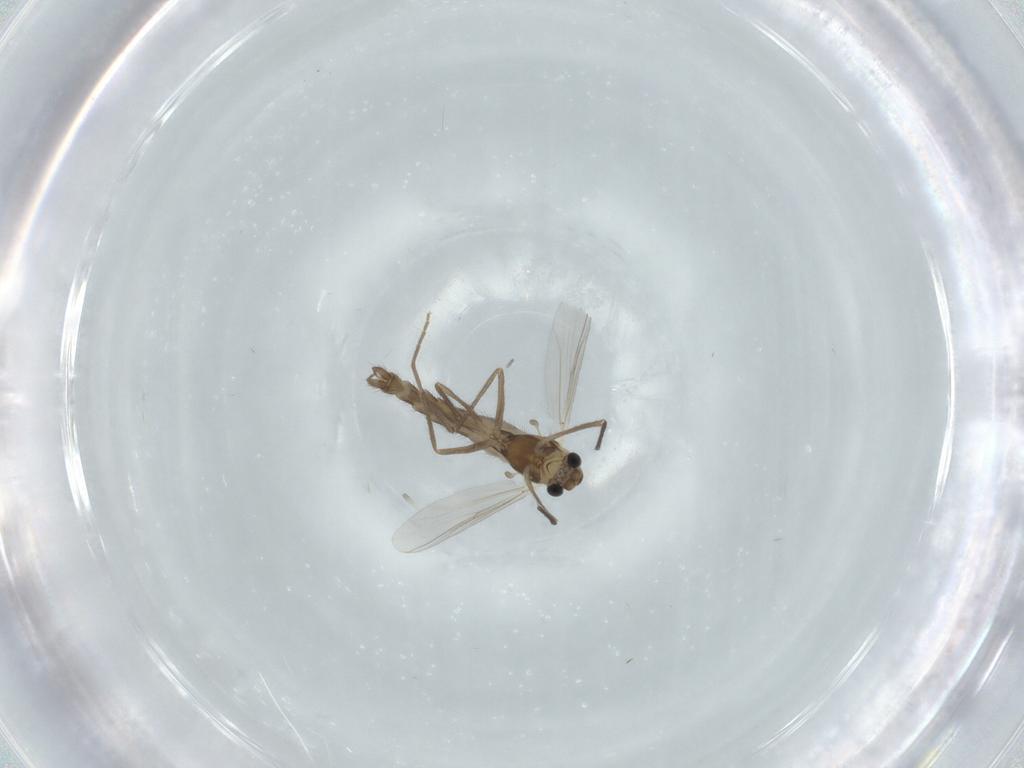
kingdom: Animalia
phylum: Arthropoda
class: Insecta
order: Diptera
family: Chironomidae
